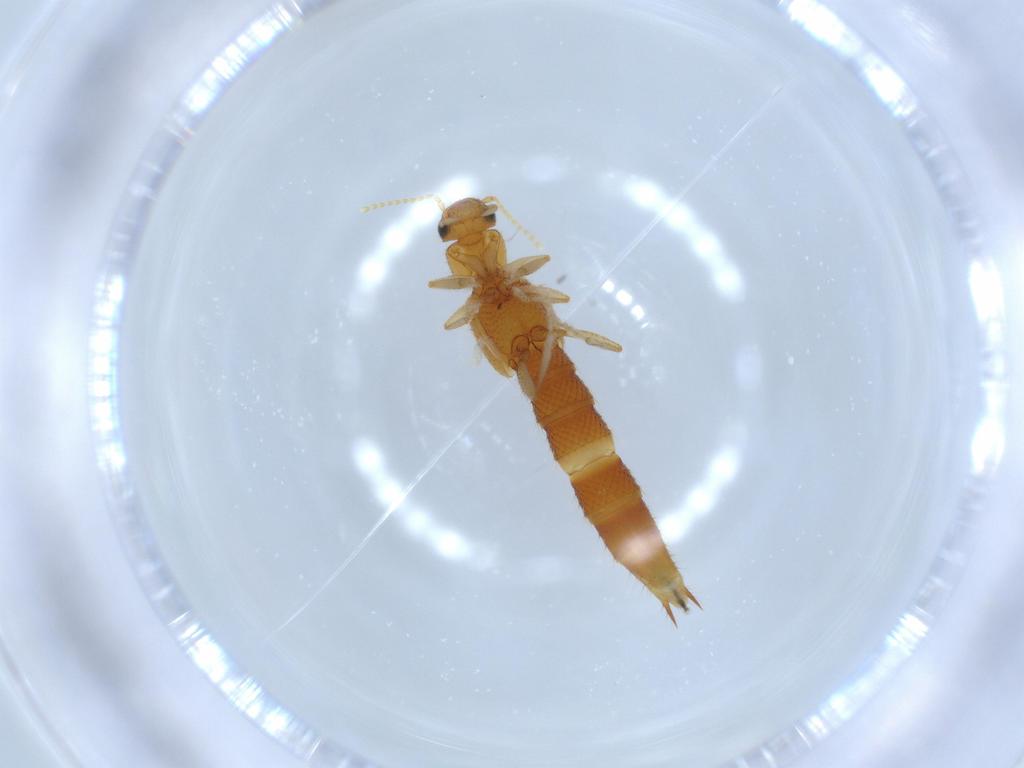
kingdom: Animalia
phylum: Arthropoda
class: Insecta
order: Coleoptera
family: Staphylinidae
